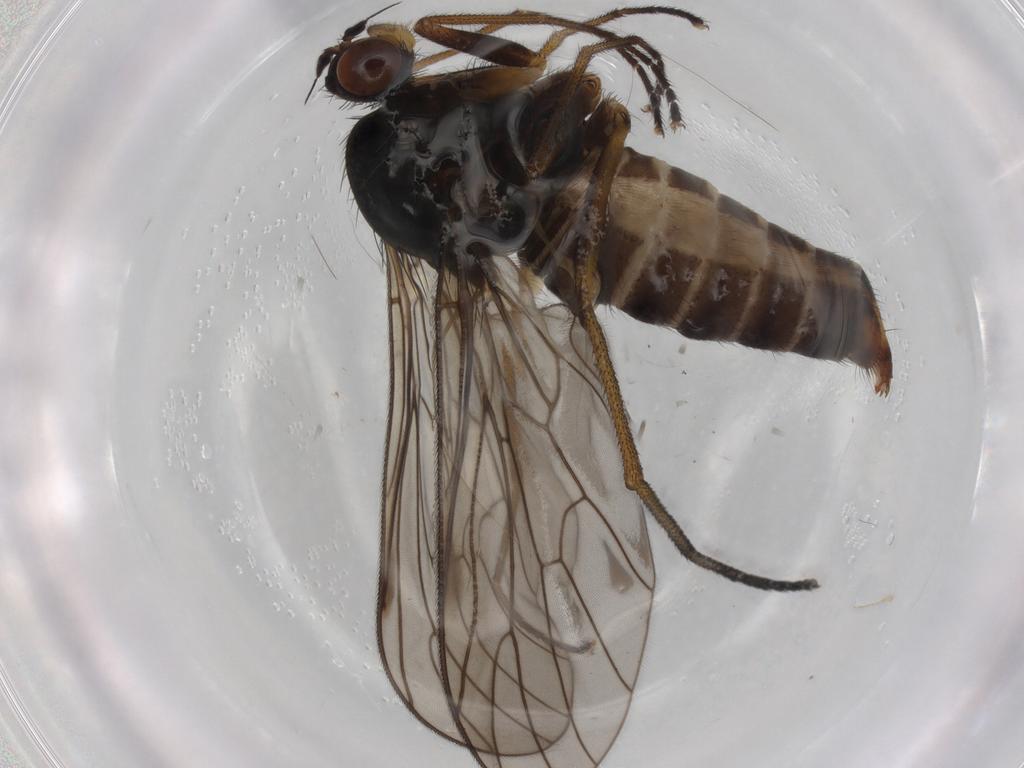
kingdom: Animalia
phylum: Arthropoda
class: Insecta
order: Diptera
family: Brachystomatidae
